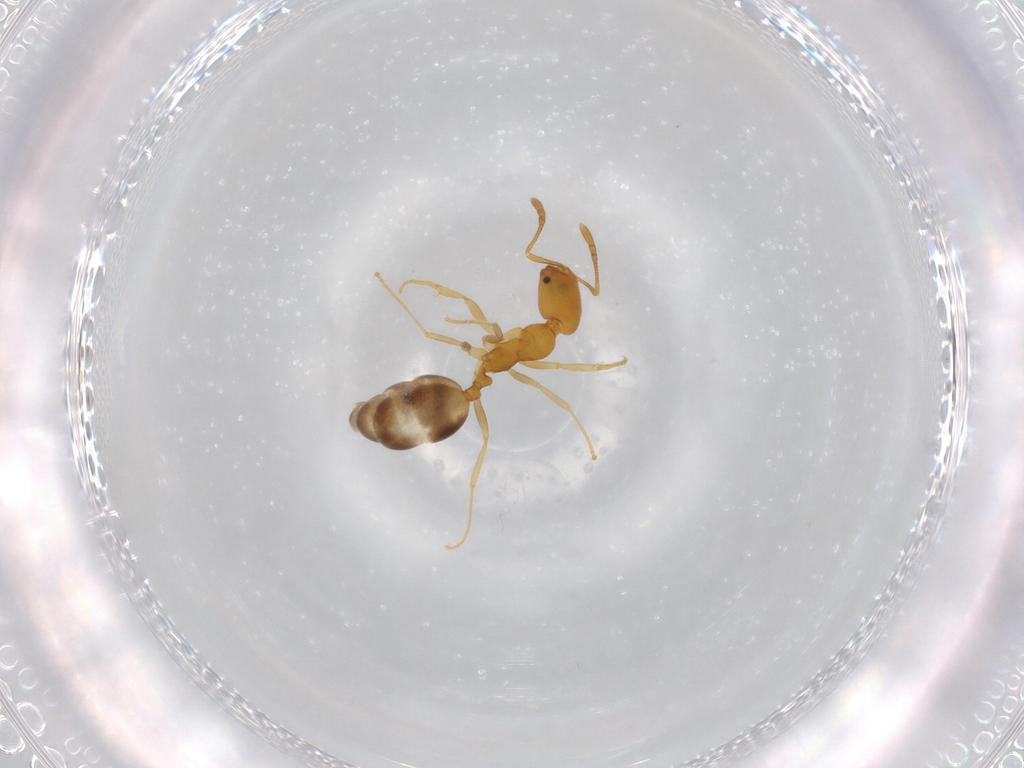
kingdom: Animalia
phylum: Arthropoda
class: Insecta
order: Hymenoptera
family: Formicidae
